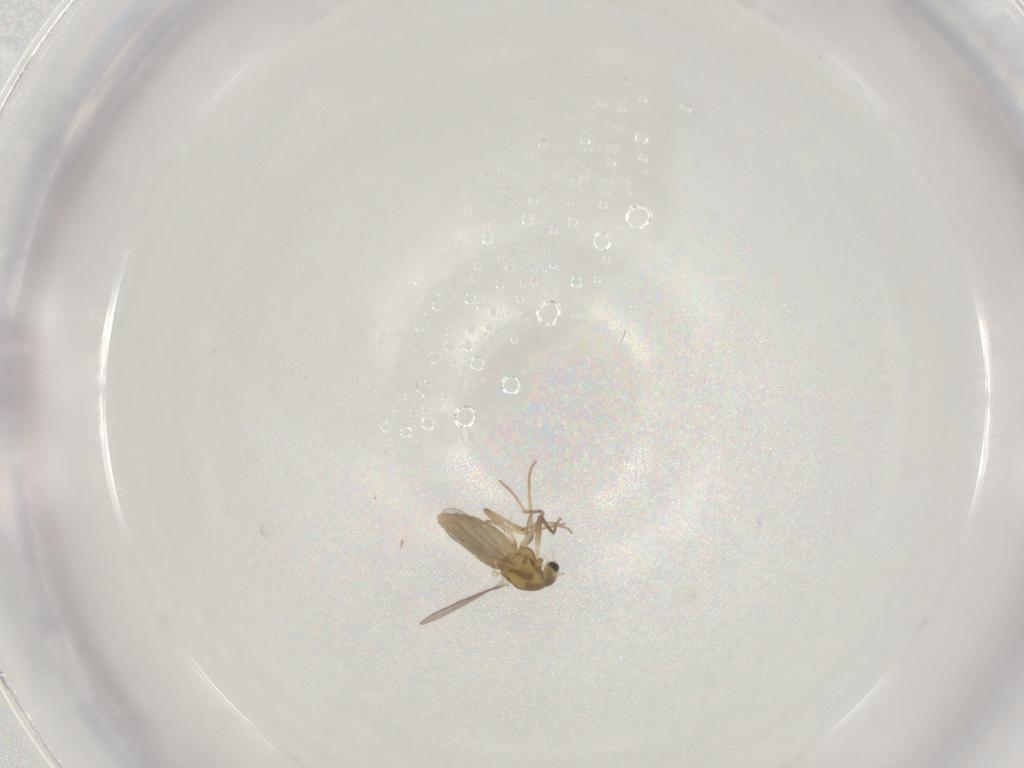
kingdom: Animalia
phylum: Arthropoda
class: Insecta
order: Diptera
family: Chironomidae
